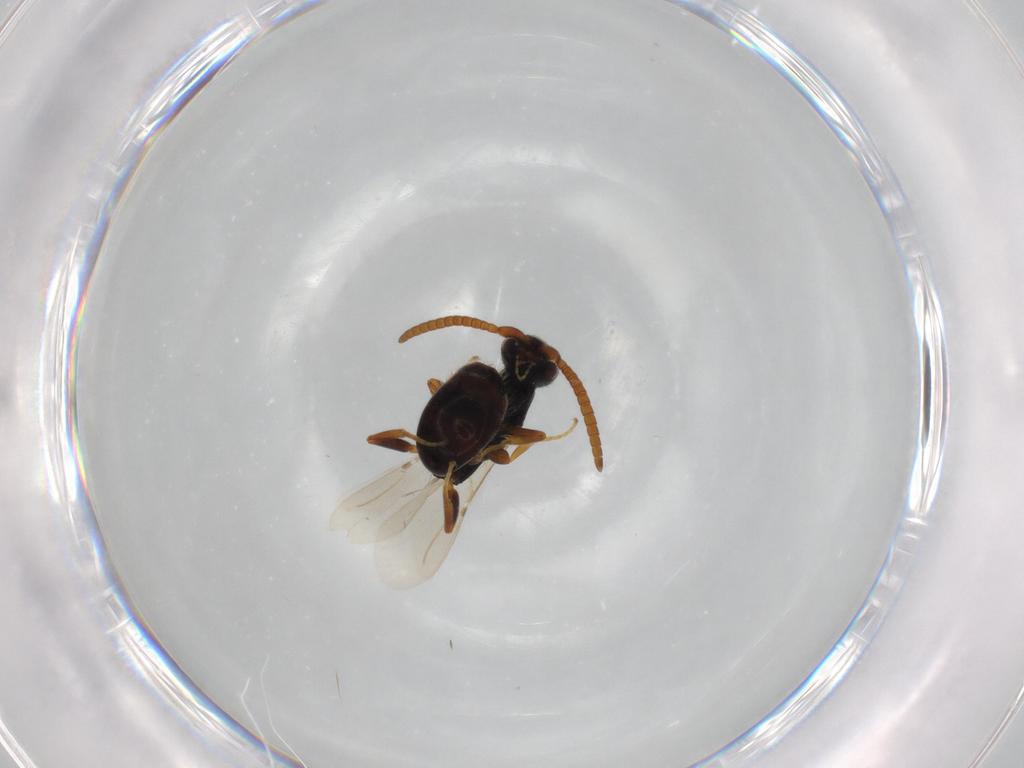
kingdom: Animalia
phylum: Arthropoda
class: Insecta
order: Hymenoptera
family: Bethylidae
